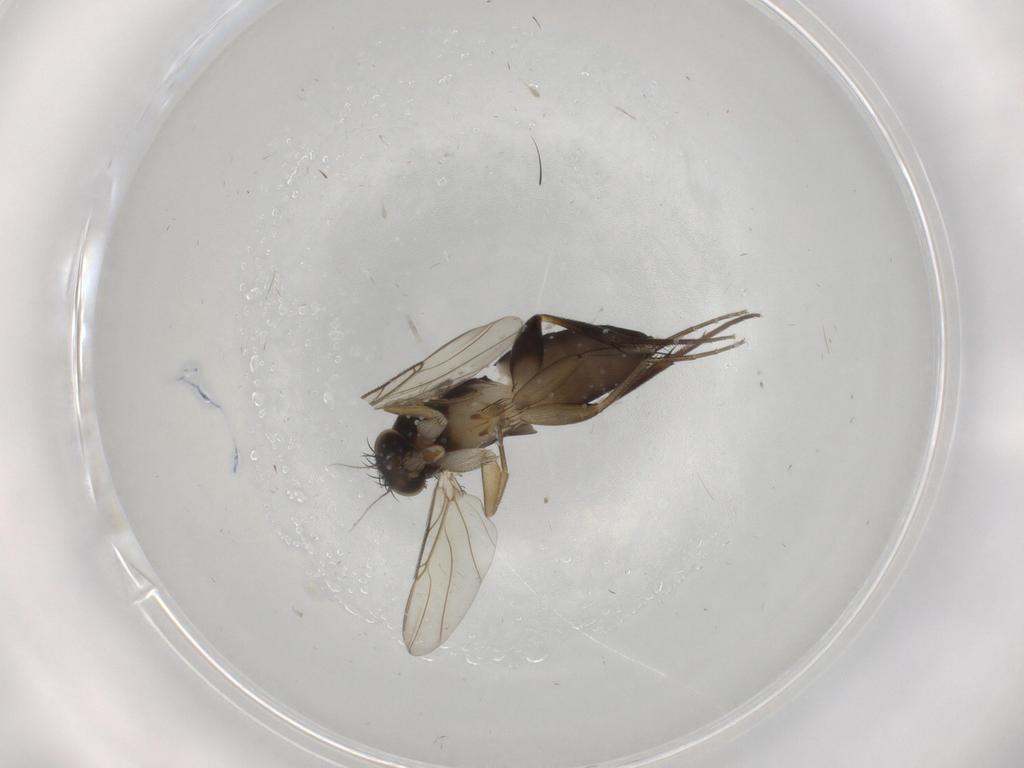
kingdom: Animalia
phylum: Arthropoda
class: Insecta
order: Diptera
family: Phoridae
